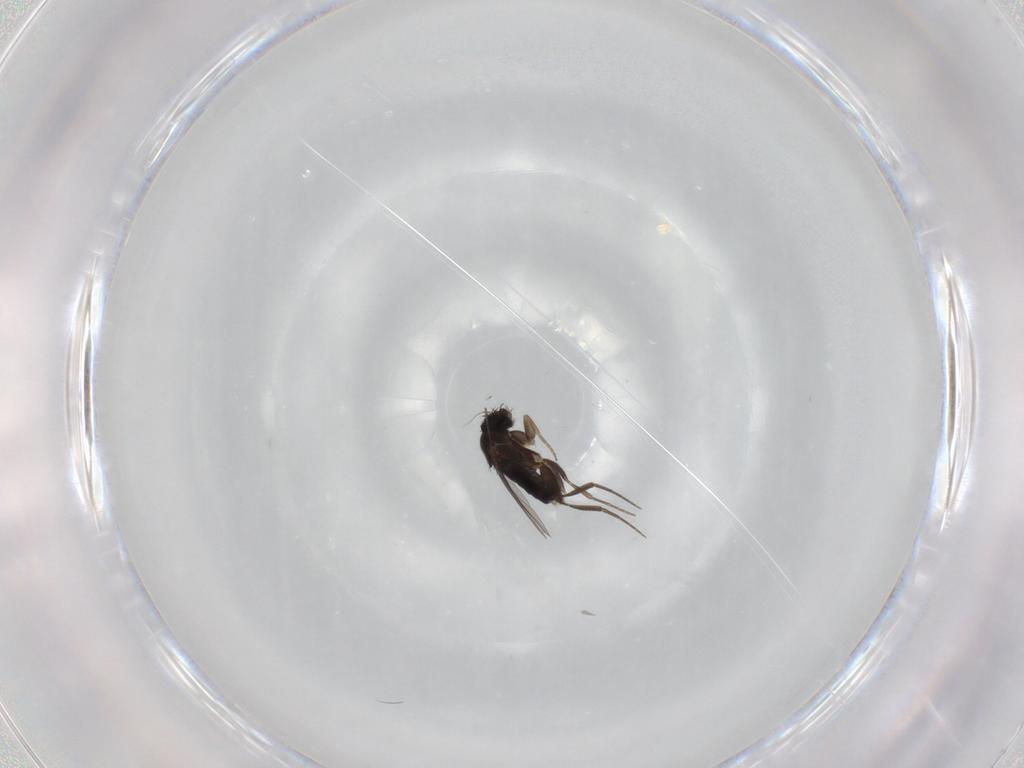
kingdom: Animalia
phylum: Arthropoda
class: Insecta
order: Diptera
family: Phoridae
